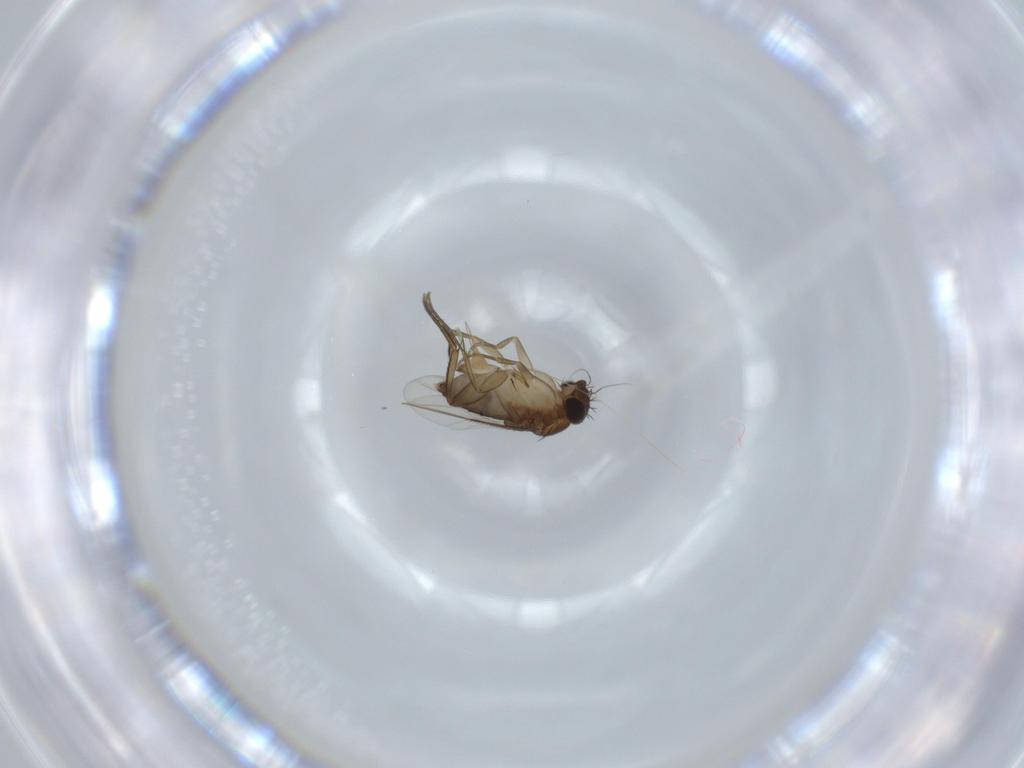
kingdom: Animalia
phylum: Arthropoda
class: Insecta
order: Diptera
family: Phoridae
